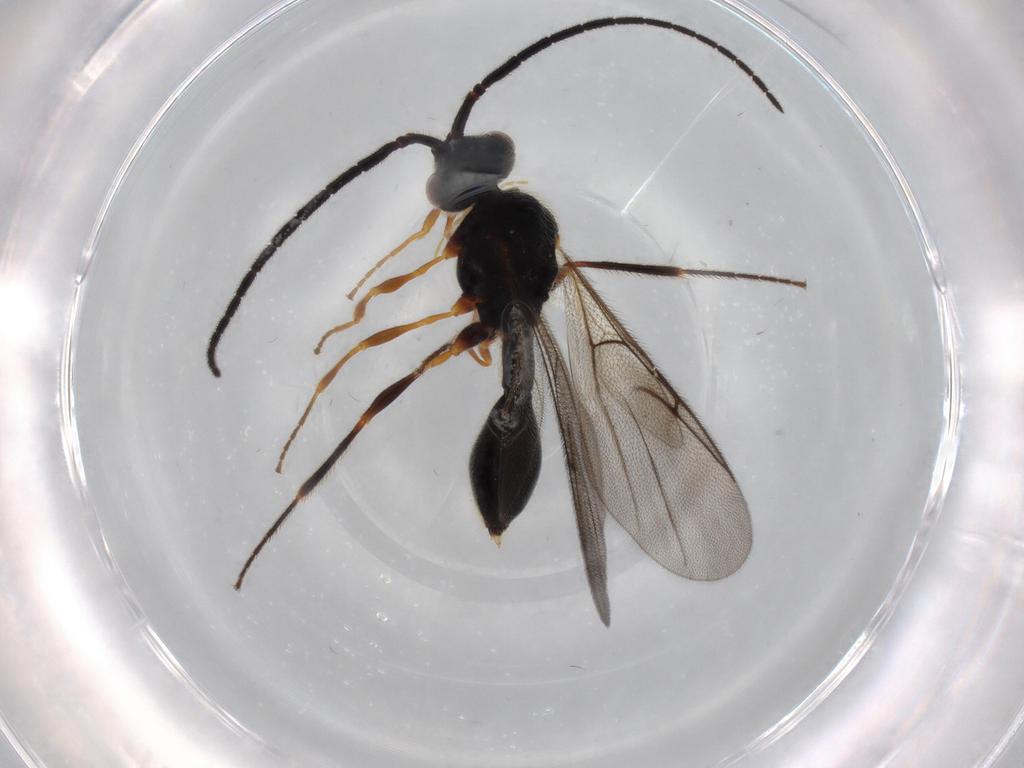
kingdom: Animalia
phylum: Arthropoda
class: Insecta
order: Hymenoptera
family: Diapriidae
